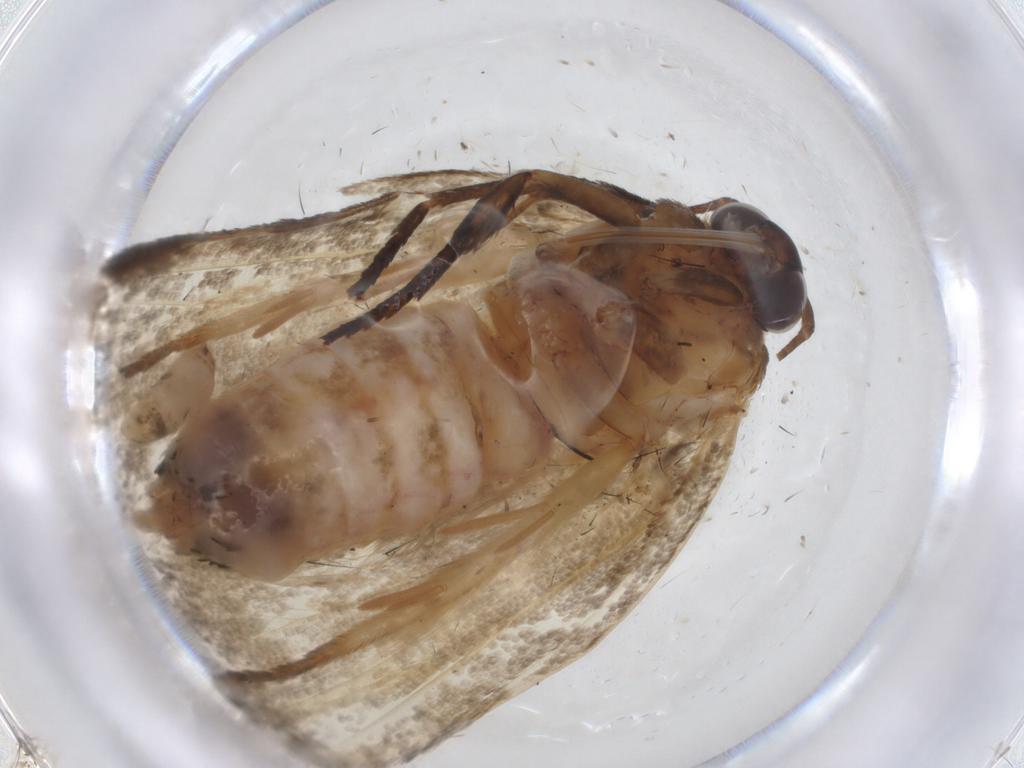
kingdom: Animalia
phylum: Arthropoda
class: Insecta
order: Lepidoptera
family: Oecophoridae
